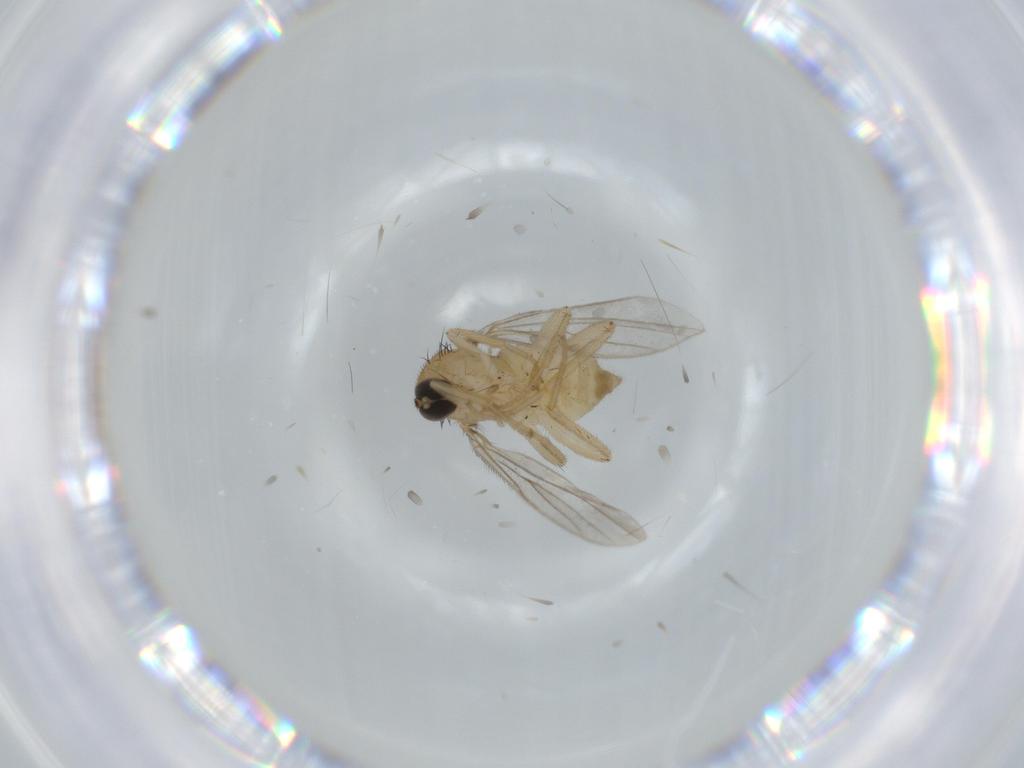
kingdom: Animalia
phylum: Arthropoda
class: Insecta
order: Diptera
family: Hybotidae
